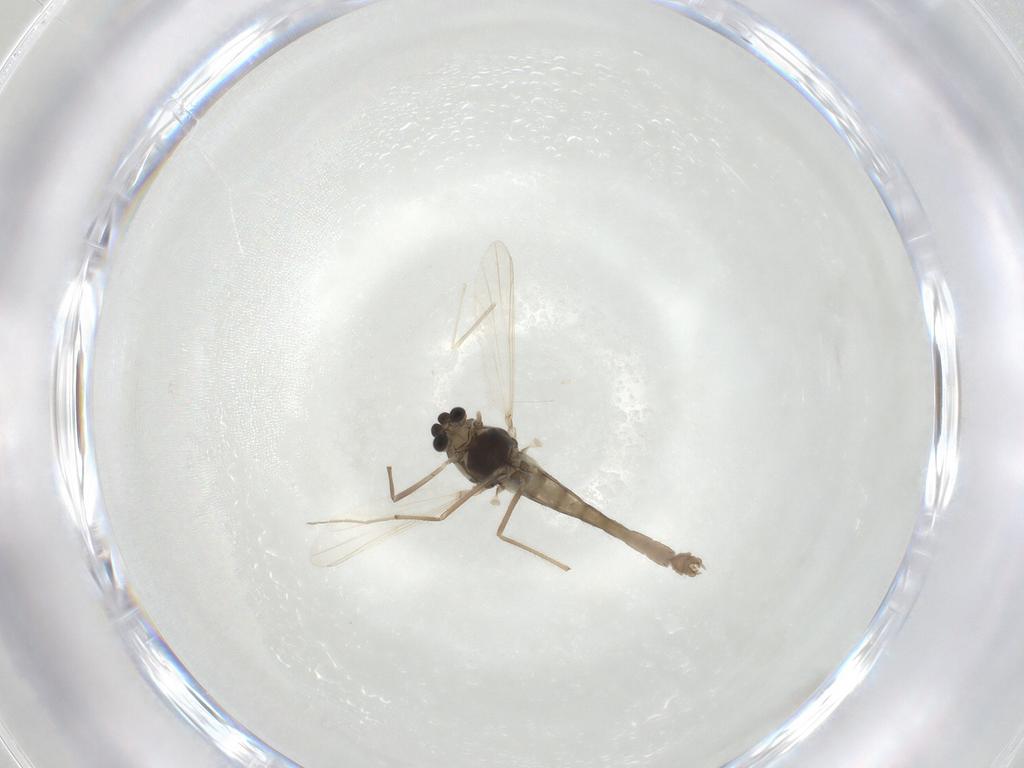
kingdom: Animalia
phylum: Arthropoda
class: Insecta
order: Diptera
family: Chironomidae
